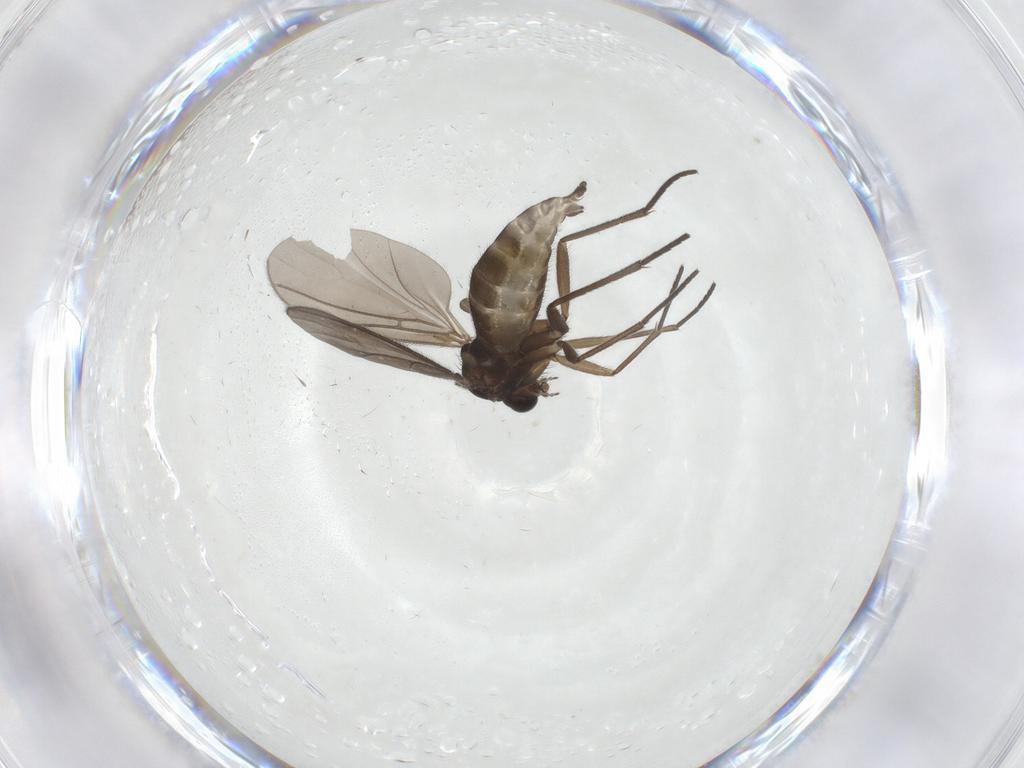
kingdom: Animalia
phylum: Arthropoda
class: Insecta
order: Diptera
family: Sciaridae
